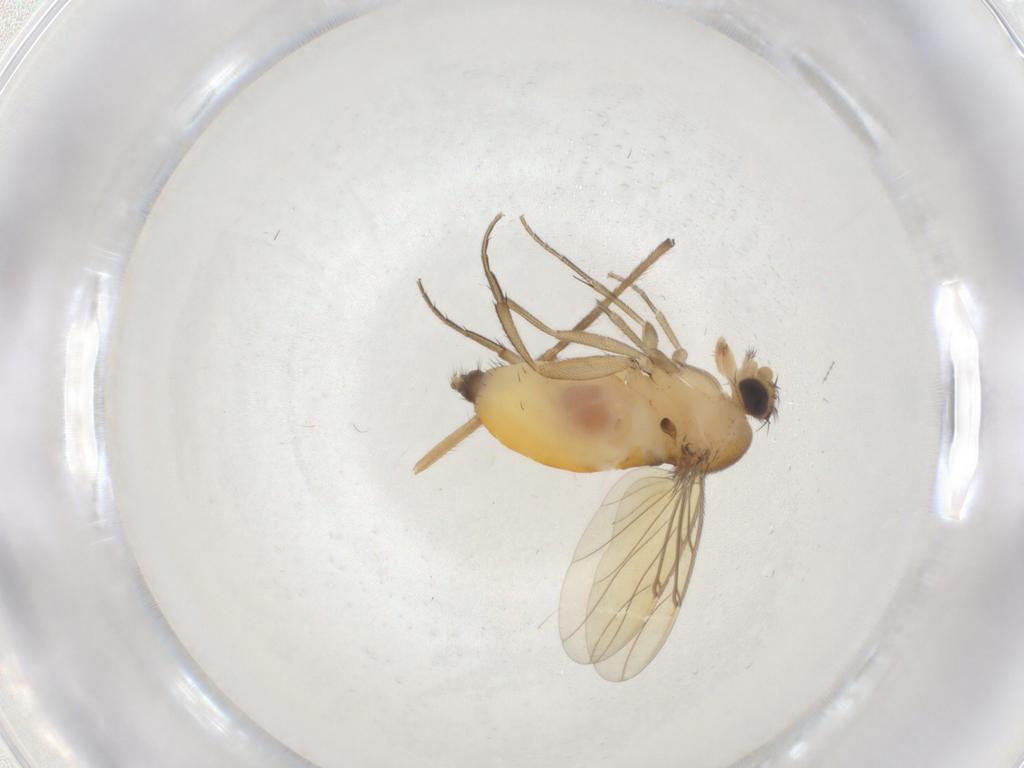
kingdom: Animalia
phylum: Arthropoda
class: Insecta
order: Diptera
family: Phoridae
